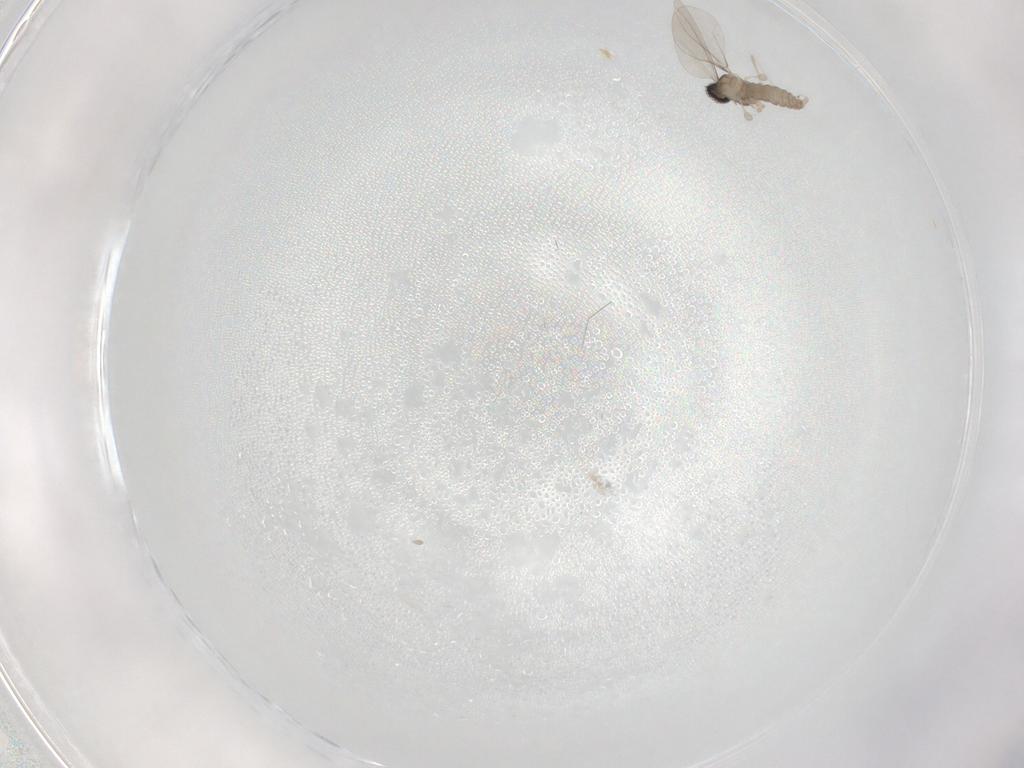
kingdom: Animalia
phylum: Arthropoda
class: Insecta
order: Diptera
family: Cecidomyiidae
